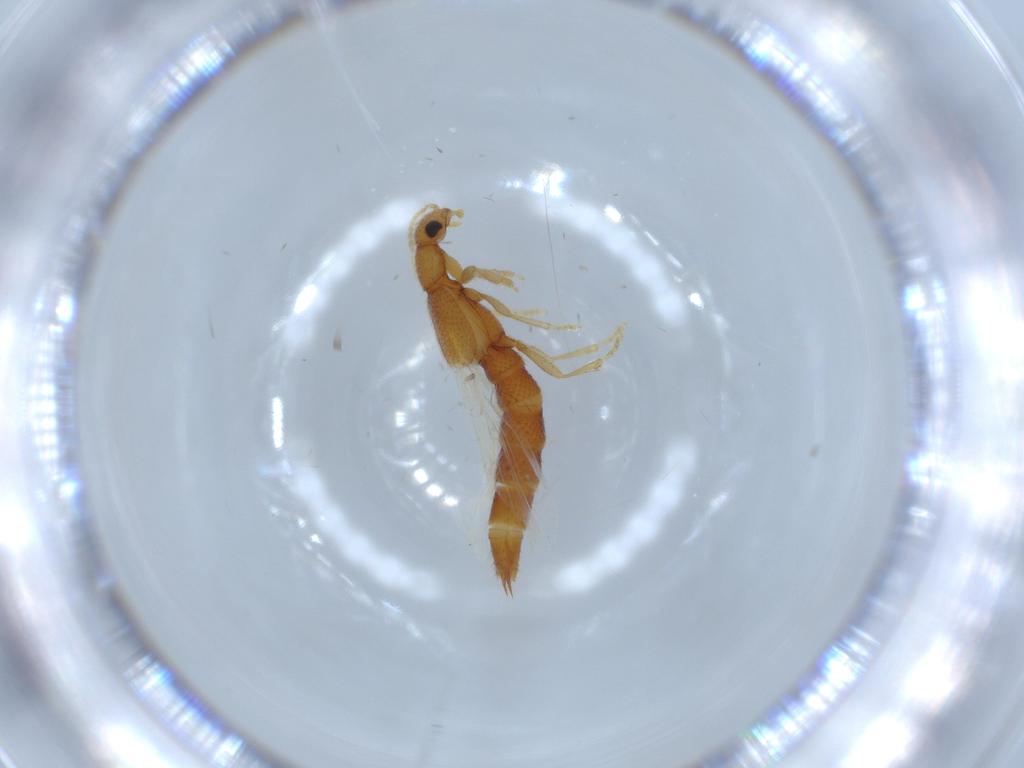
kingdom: Animalia
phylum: Arthropoda
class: Insecta
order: Coleoptera
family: Staphylinidae
